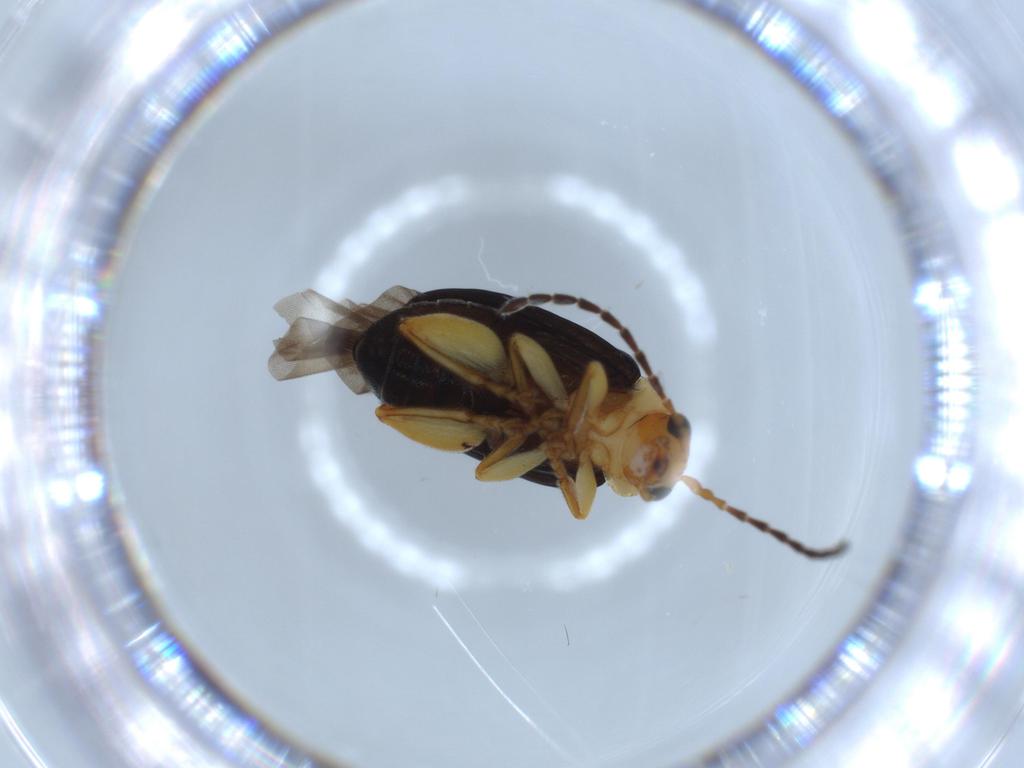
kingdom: Animalia
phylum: Arthropoda
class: Insecta
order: Coleoptera
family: Chrysomelidae
